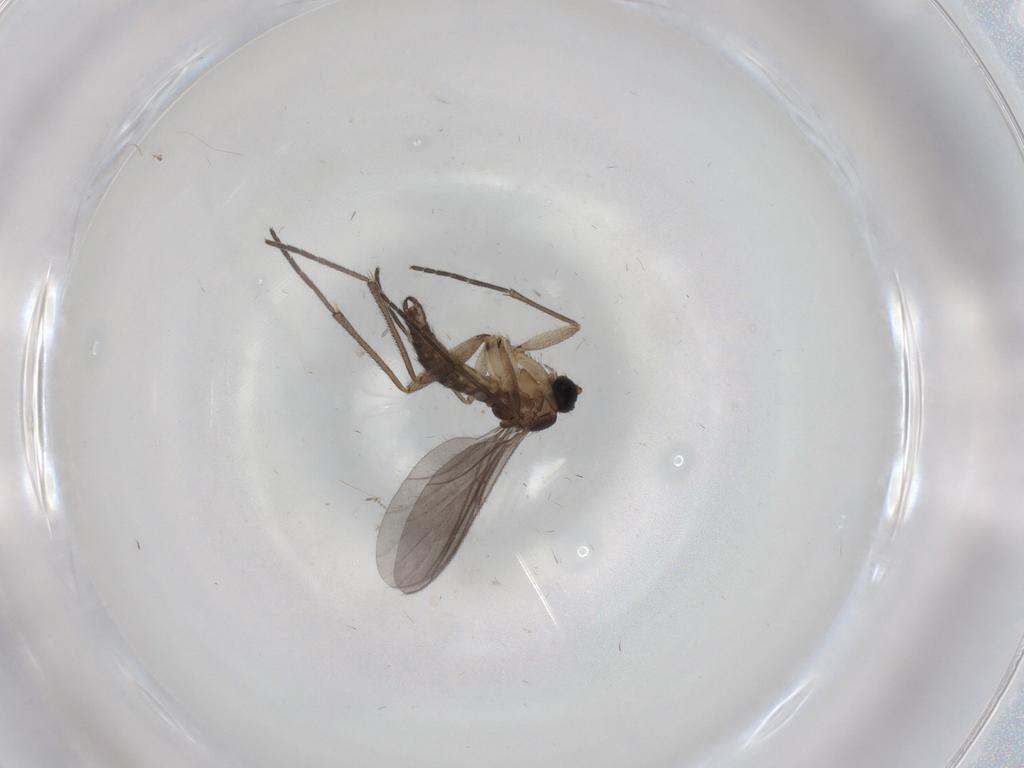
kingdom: Animalia
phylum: Arthropoda
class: Insecta
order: Diptera
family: Sciaridae
